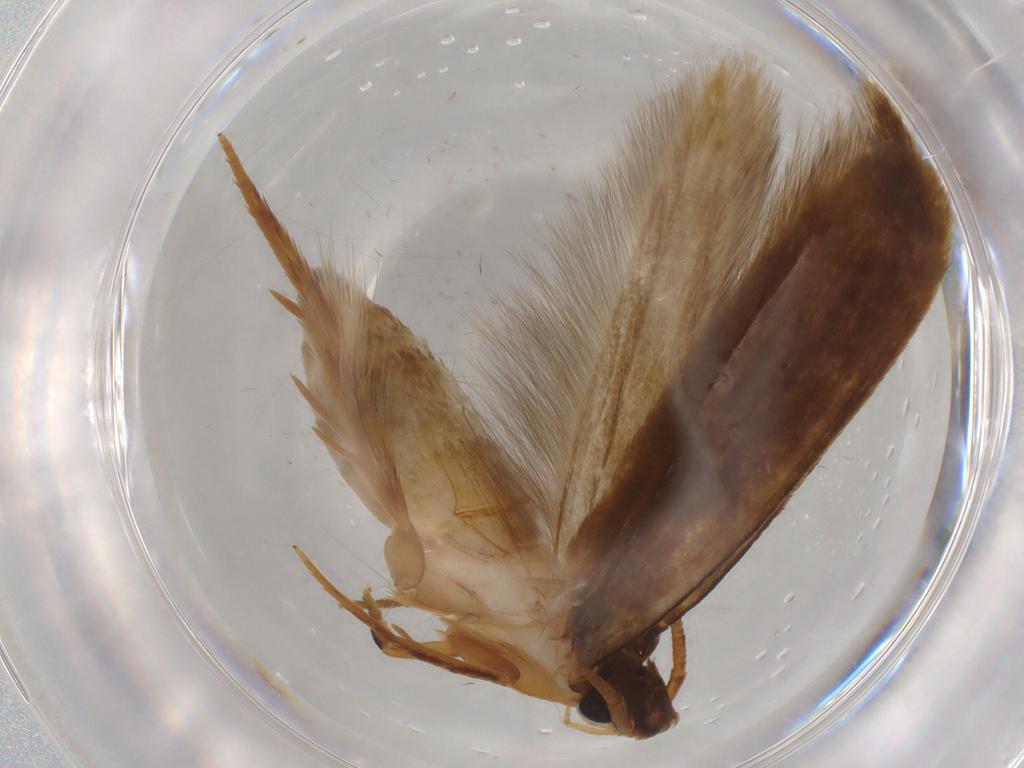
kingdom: Animalia
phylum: Arthropoda
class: Insecta
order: Lepidoptera
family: Tineidae
